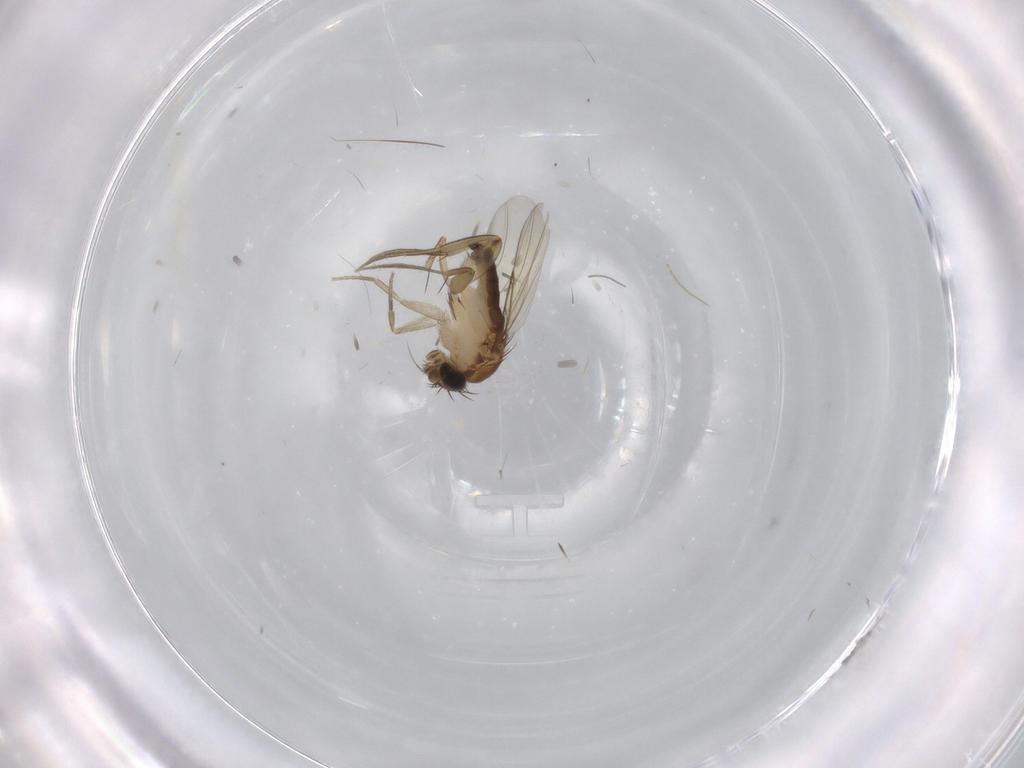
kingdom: Animalia
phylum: Arthropoda
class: Insecta
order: Diptera
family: Phoridae
